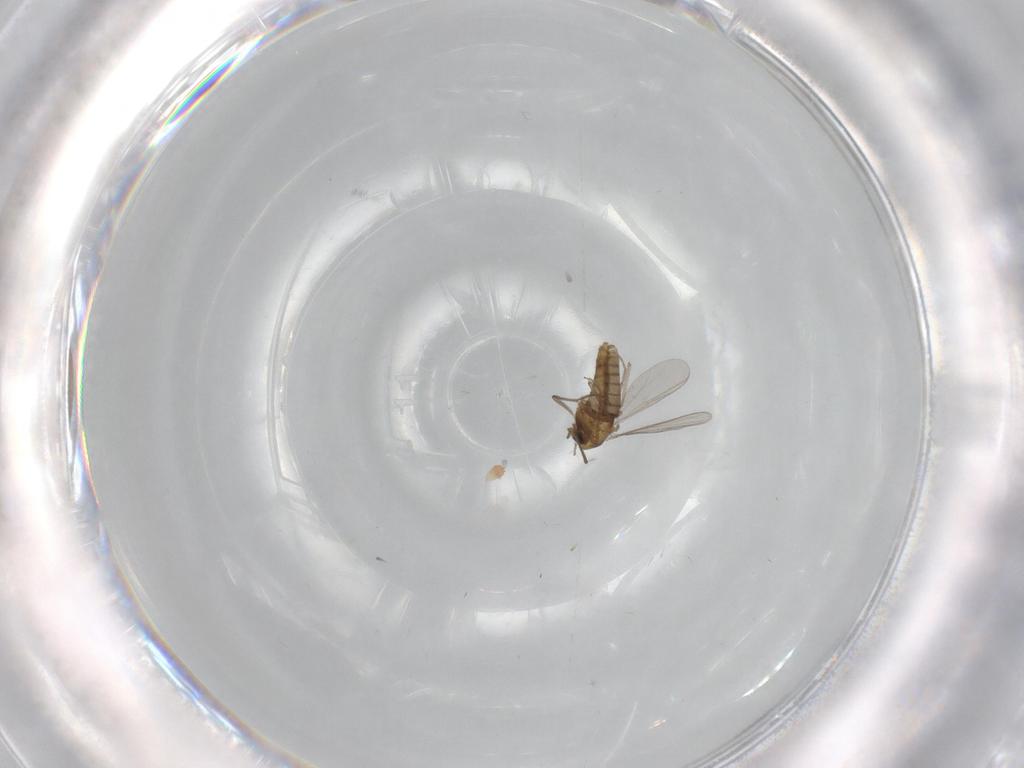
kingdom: Animalia
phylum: Arthropoda
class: Insecta
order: Diptera
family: Chironomidae
